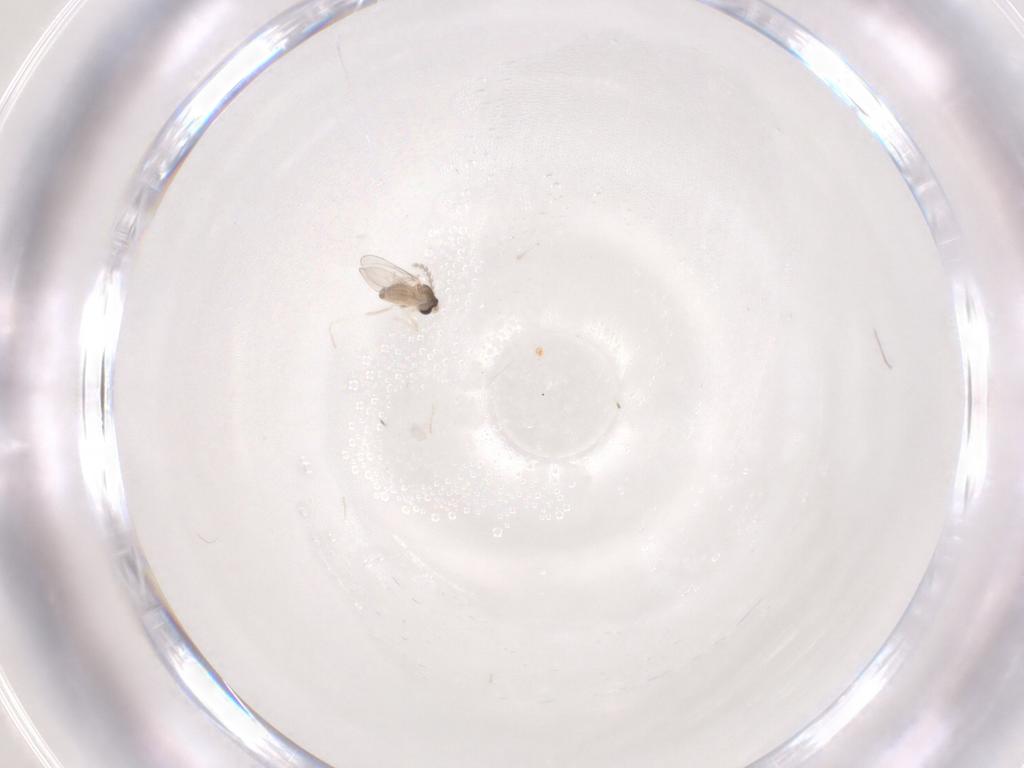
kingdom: Animalia
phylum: Arthropoda
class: Insecta
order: Diptera
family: Cecidomyiidae
